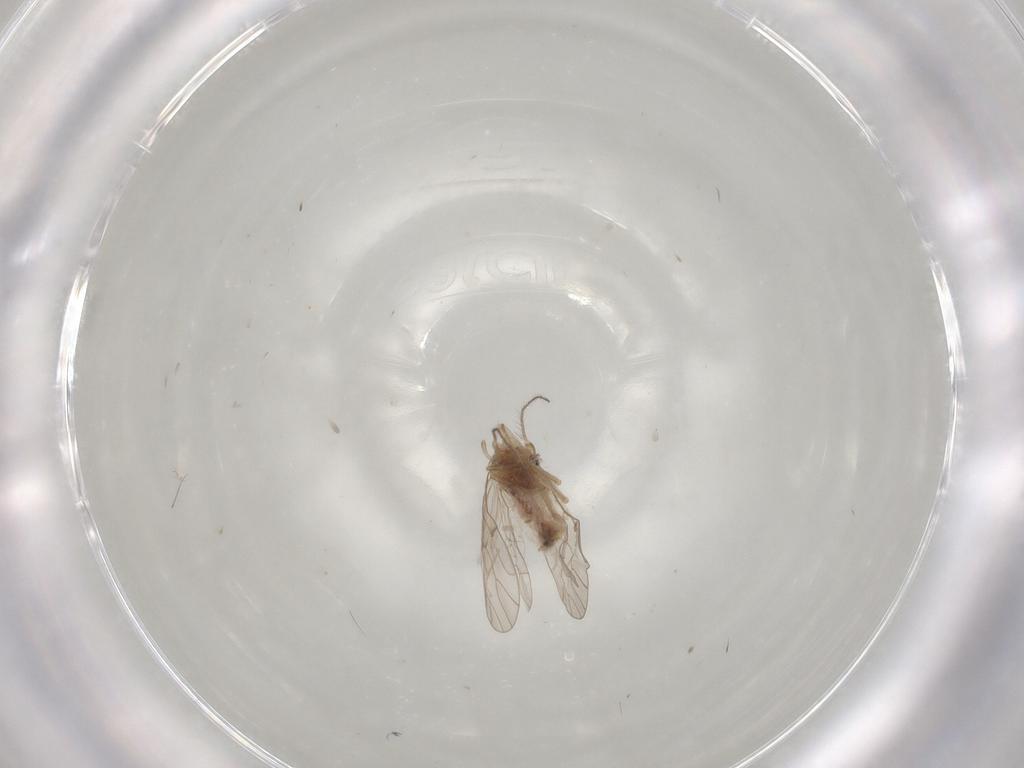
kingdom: Animalia
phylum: Arthropoda
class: Insecta
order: Psocodea
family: Ectopsocidae
